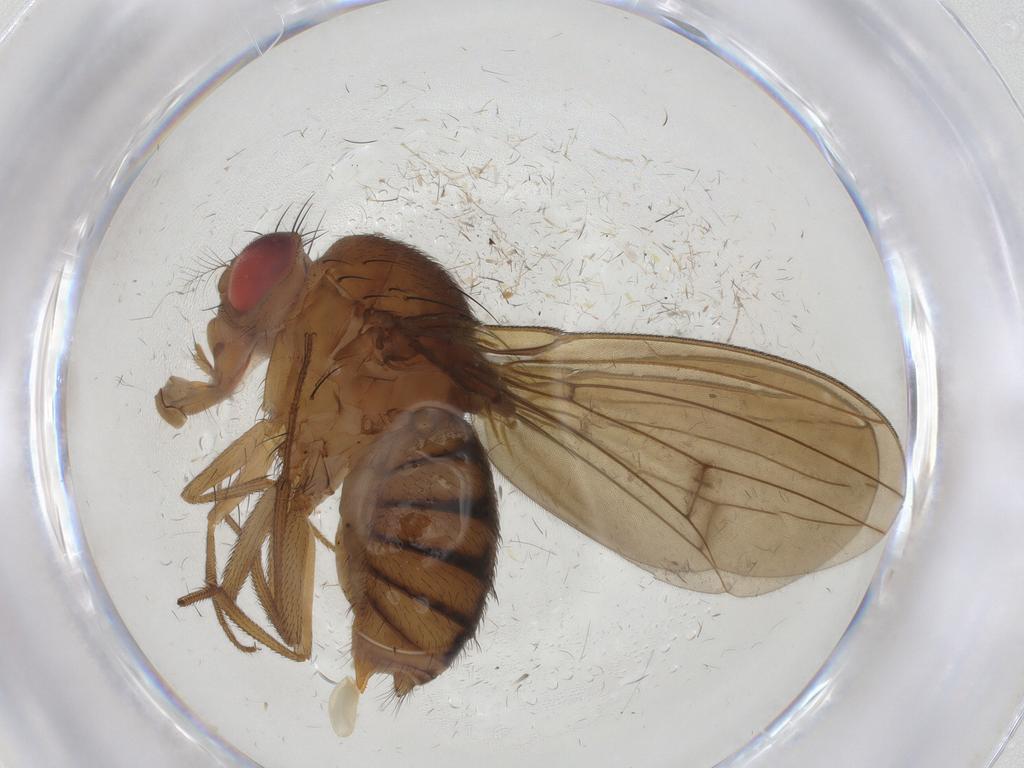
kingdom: Animalia
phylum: Arthropoda
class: Insecta
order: Diptera
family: Drosophilidae
